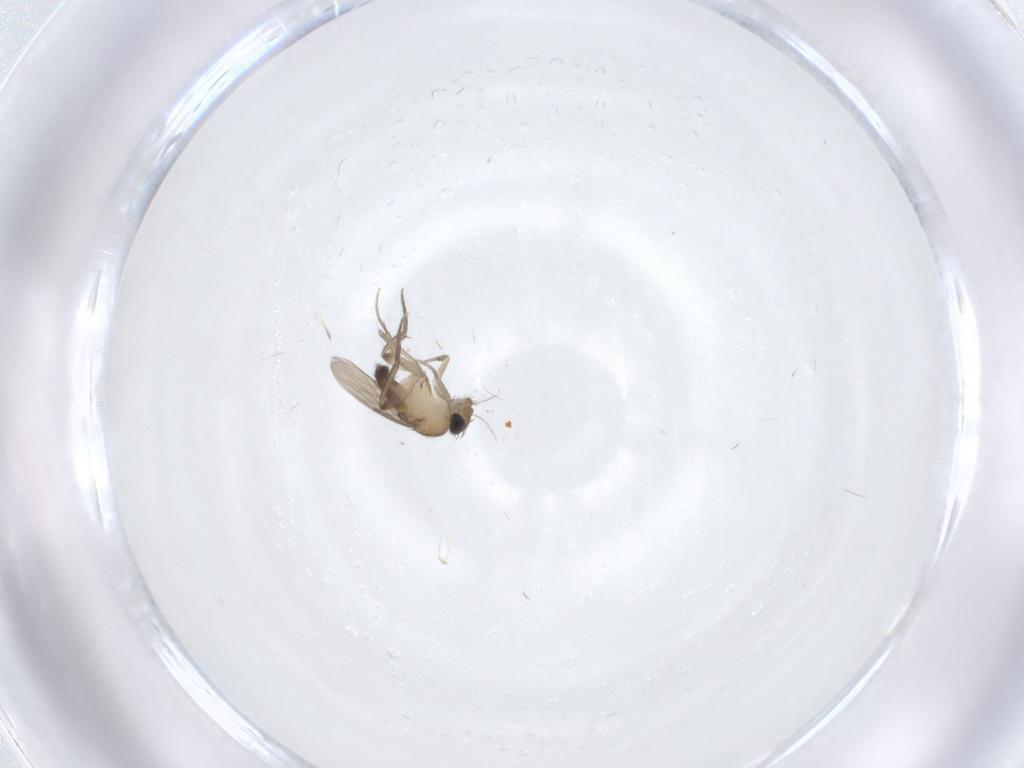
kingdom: Animalia
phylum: Arthropoda
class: Insecta
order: Diptera
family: Phoridae
